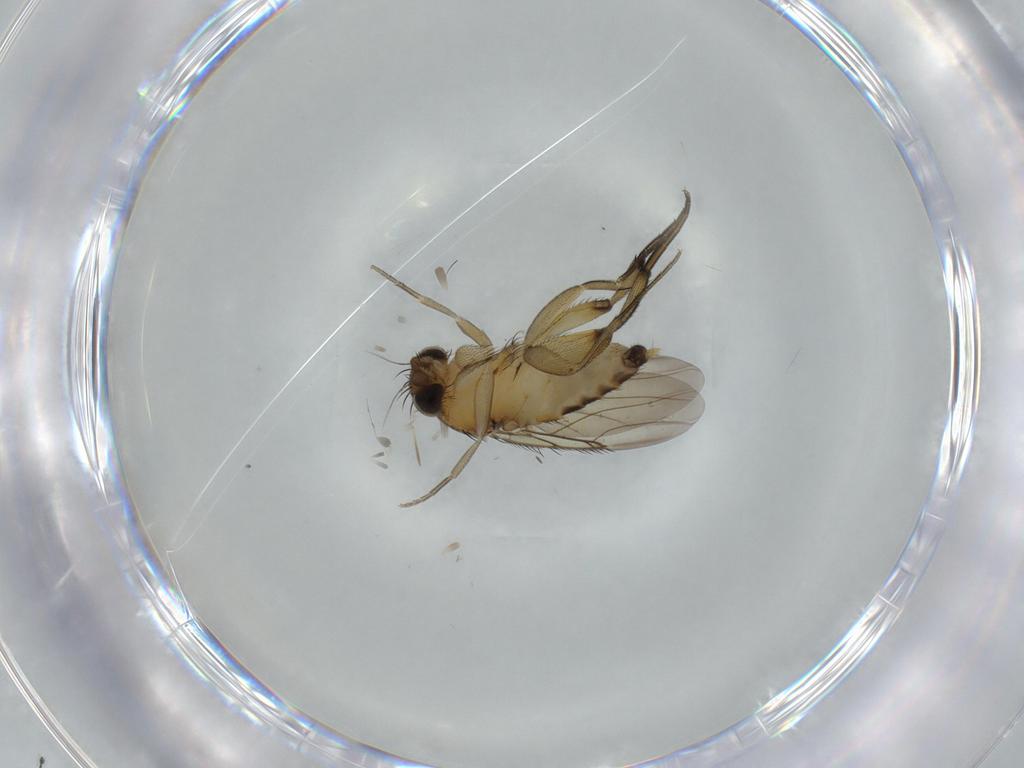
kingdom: Animalia
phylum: Arthropoda
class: Insecta
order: Diptera
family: Phoridae
